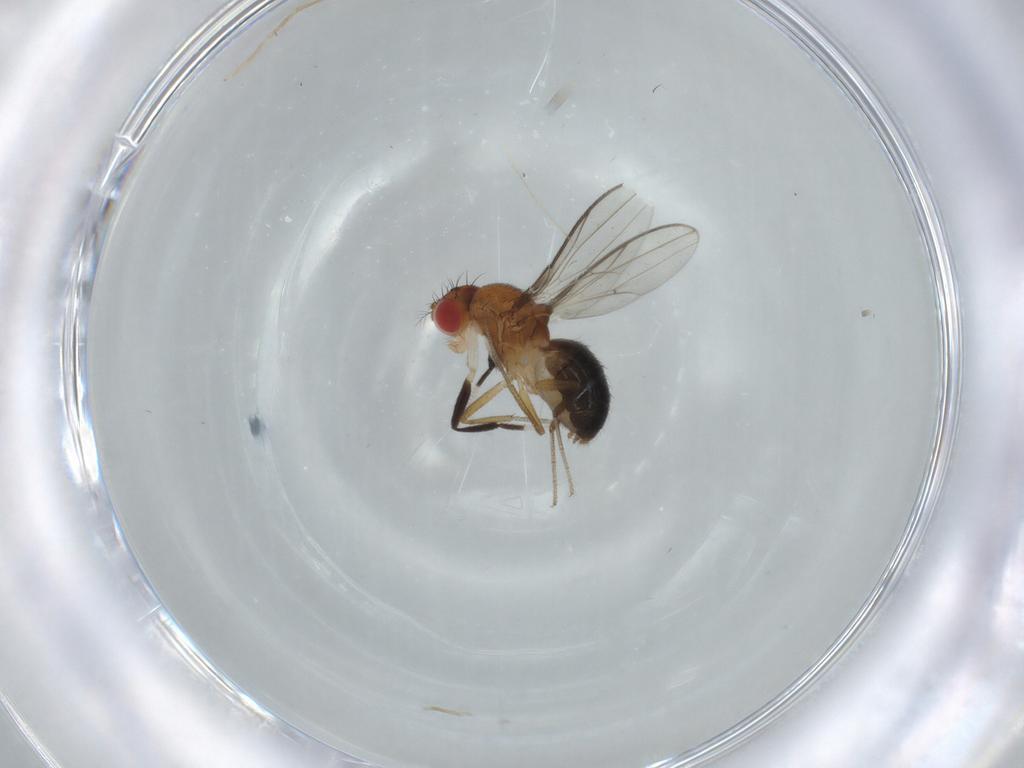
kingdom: Animalia
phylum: Arthropoda
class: Insecta
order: Diptera
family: Drosophilidae
